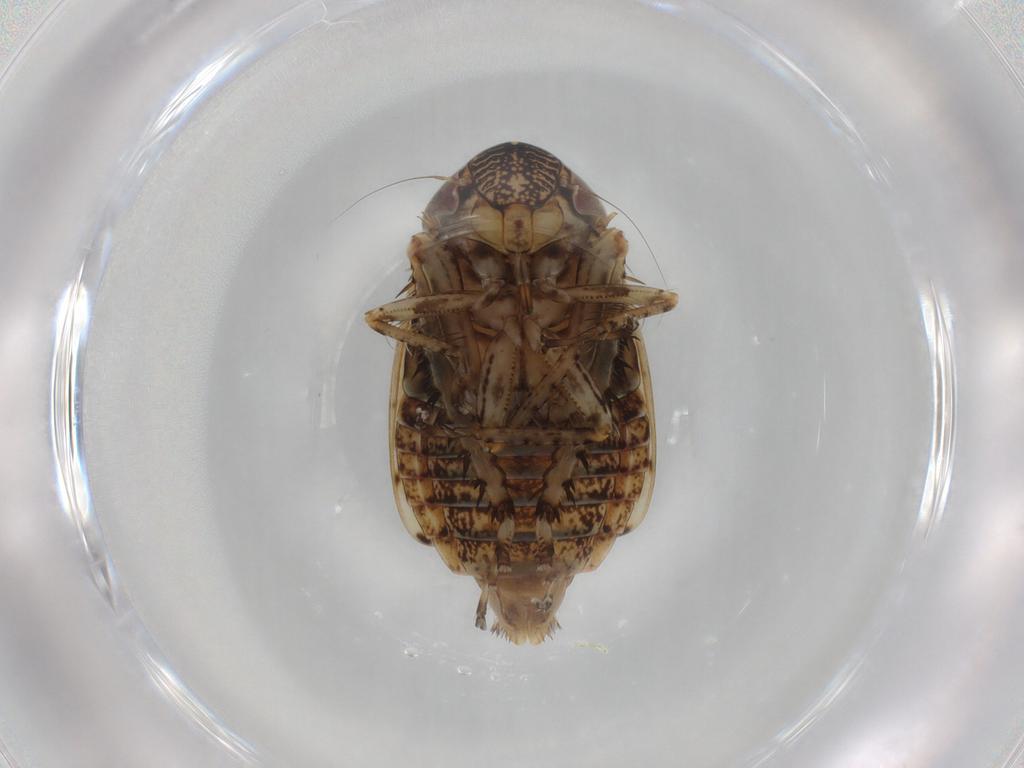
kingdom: Animalia
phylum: Arthropoda
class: Insecta
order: Hemiptera
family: Cicadellidae
